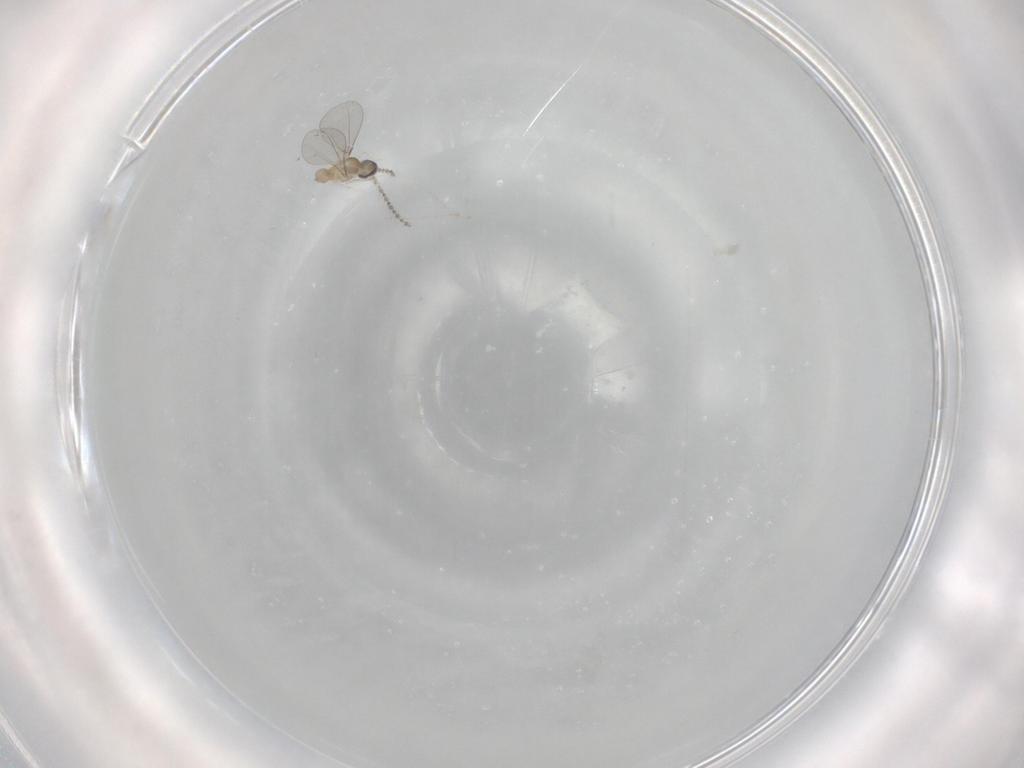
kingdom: Animalia
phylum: Arthropoda
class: Insecta
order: Diptera
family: Cecidomyiidae
